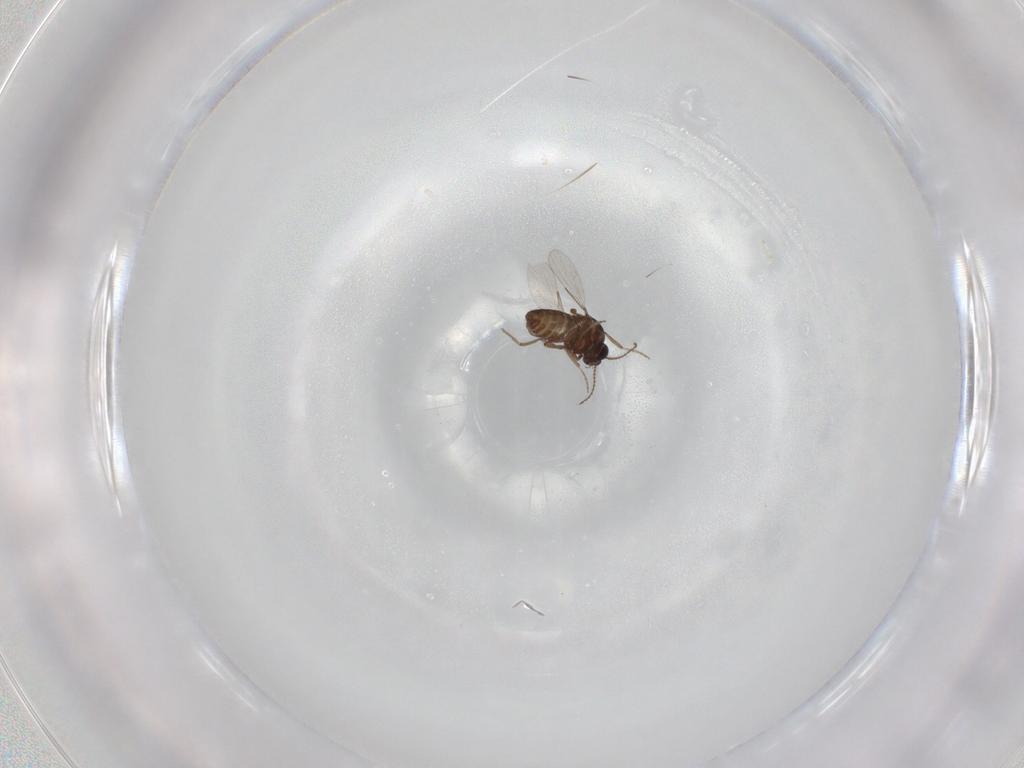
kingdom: Animalia
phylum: Arthropoda
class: Insecta
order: Diptera
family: Ceratopogonidae
